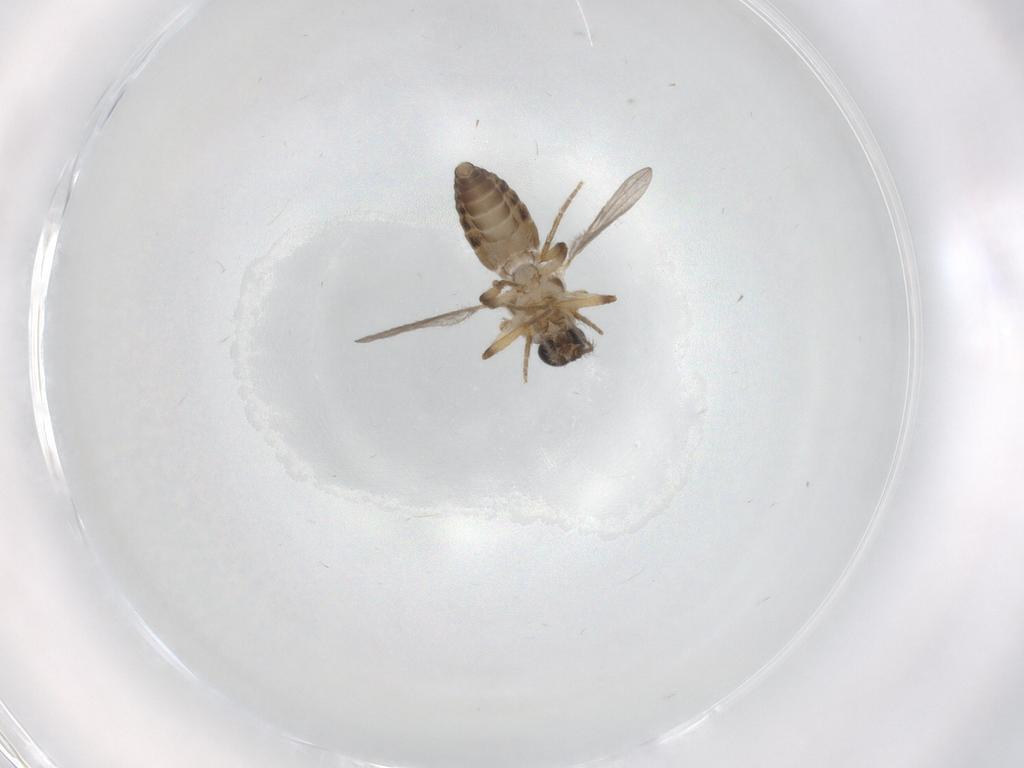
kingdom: Animalia
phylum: Arthropoda
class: Insecta
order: Diptera
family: Ceratopogonidae
